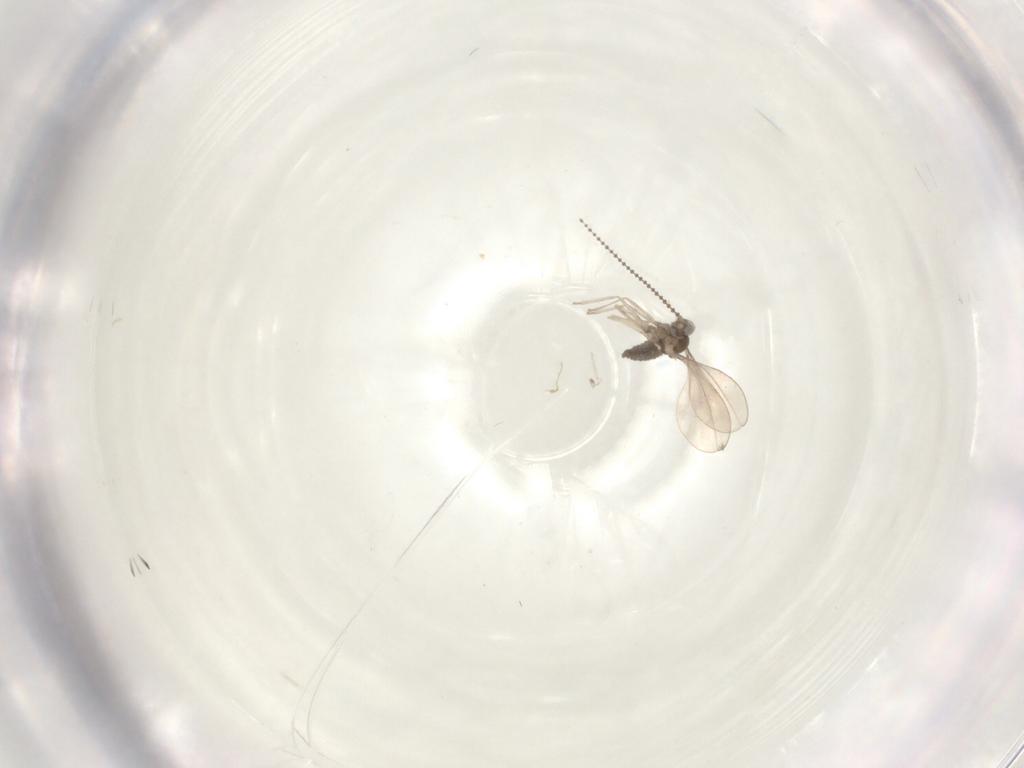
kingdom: Animalia
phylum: Arthropoda
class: Insecta
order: Diptera
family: Cecidomyiidae
